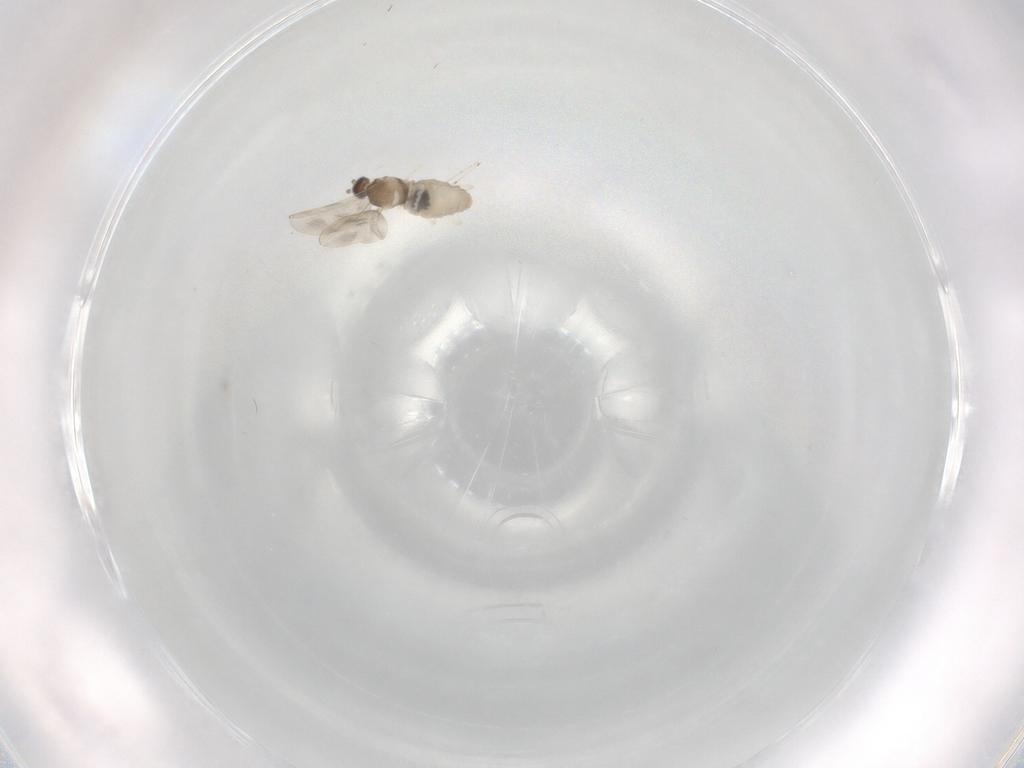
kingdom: Animalia
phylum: Arthropoda
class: Insecta
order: Diptera
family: Cecidomyiidae
